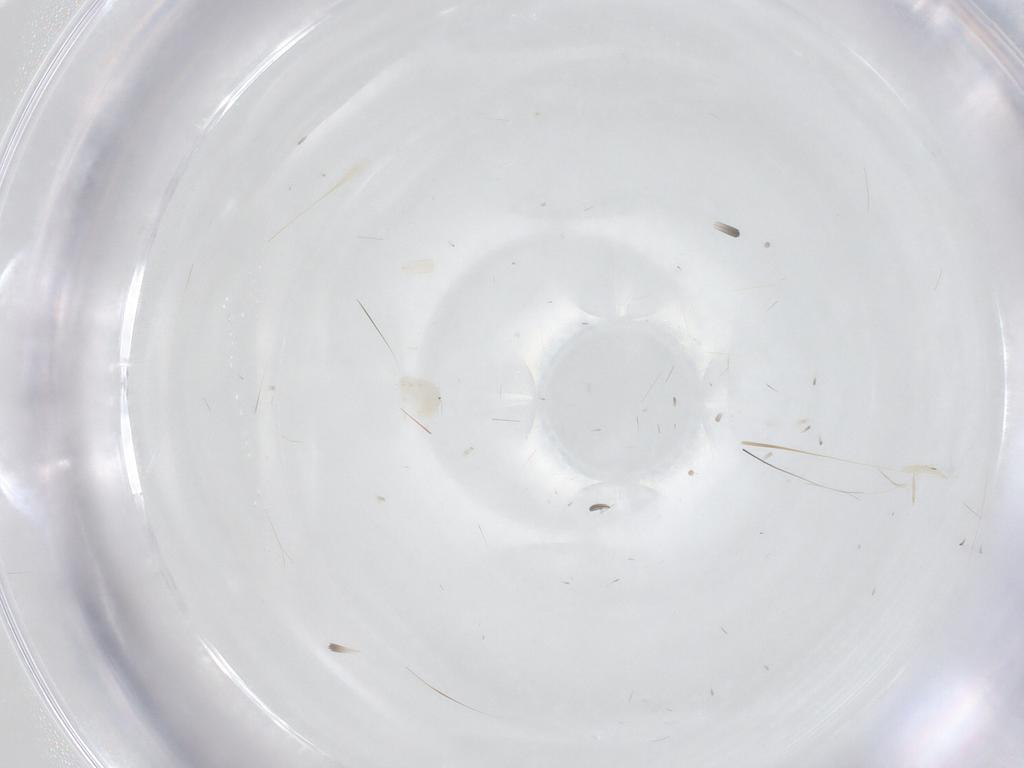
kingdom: Animalia
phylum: Arthropoda
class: Arachnida
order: Trombidiformes
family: Anystidae
